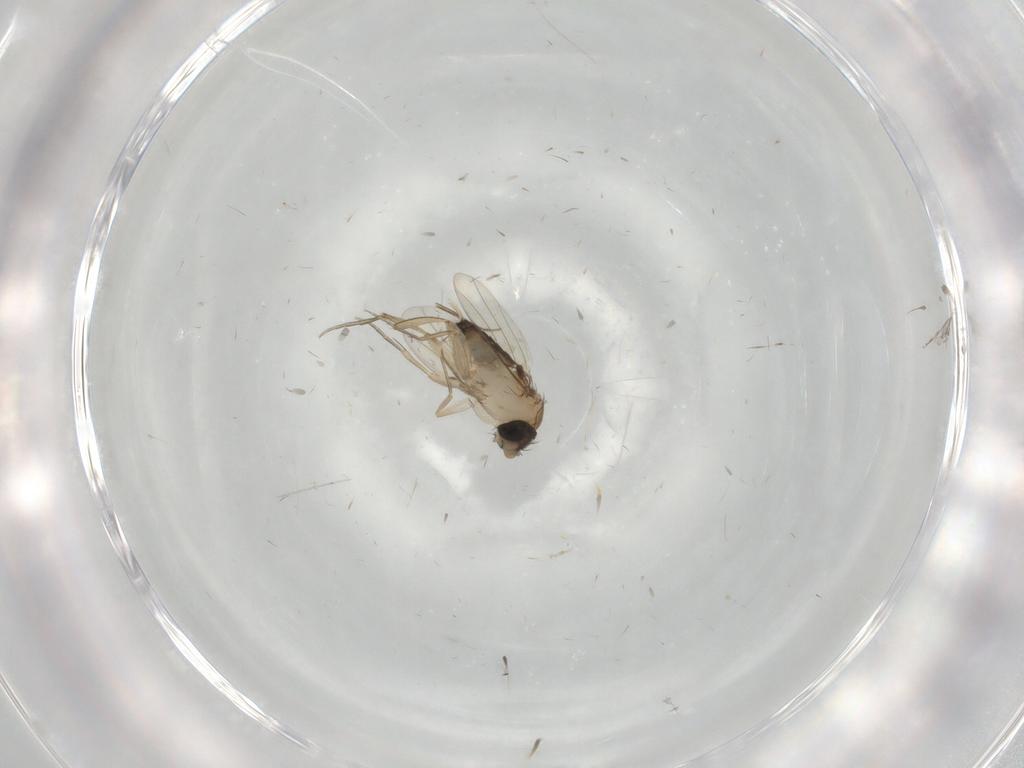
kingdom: Animalia
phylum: Arthropoda
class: Insecta
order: Diptera
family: Phoridae
